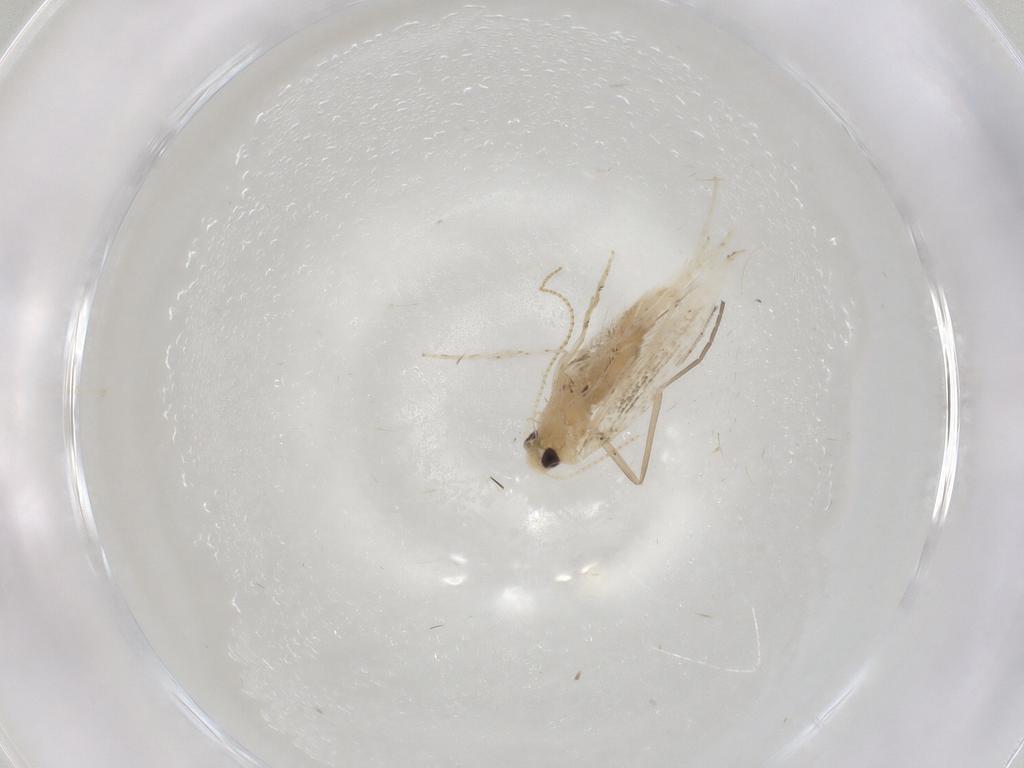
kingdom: Animalia
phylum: Arthropoda
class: Insecta
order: Lepidoptera
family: Gracillariidae
